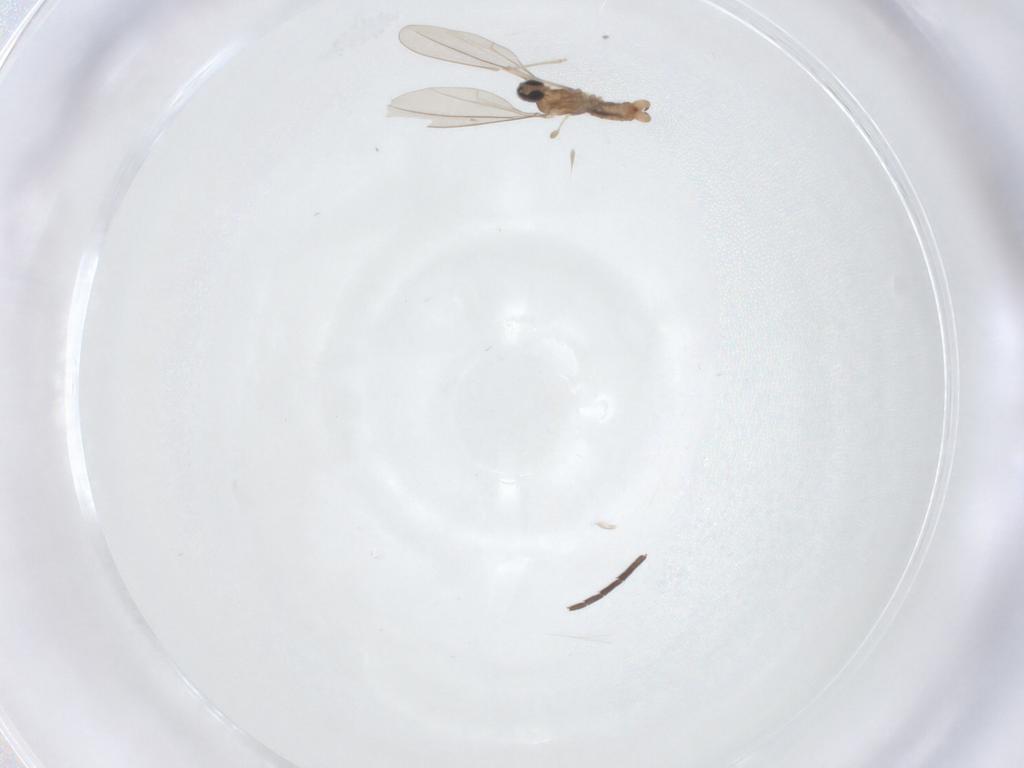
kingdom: Animalia
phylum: Arthropoda
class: Insecta
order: Diptera
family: Cecidomyiidae
